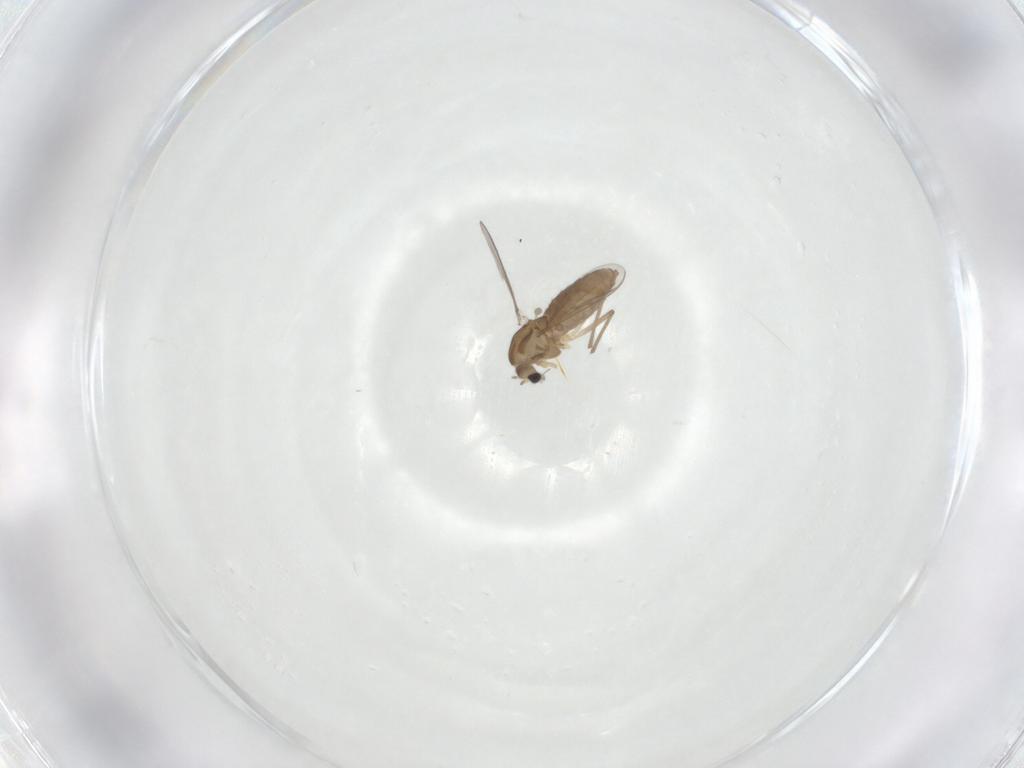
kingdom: Animalia
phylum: Arthropoda
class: Insecta
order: Diptera
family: Chironomidae
